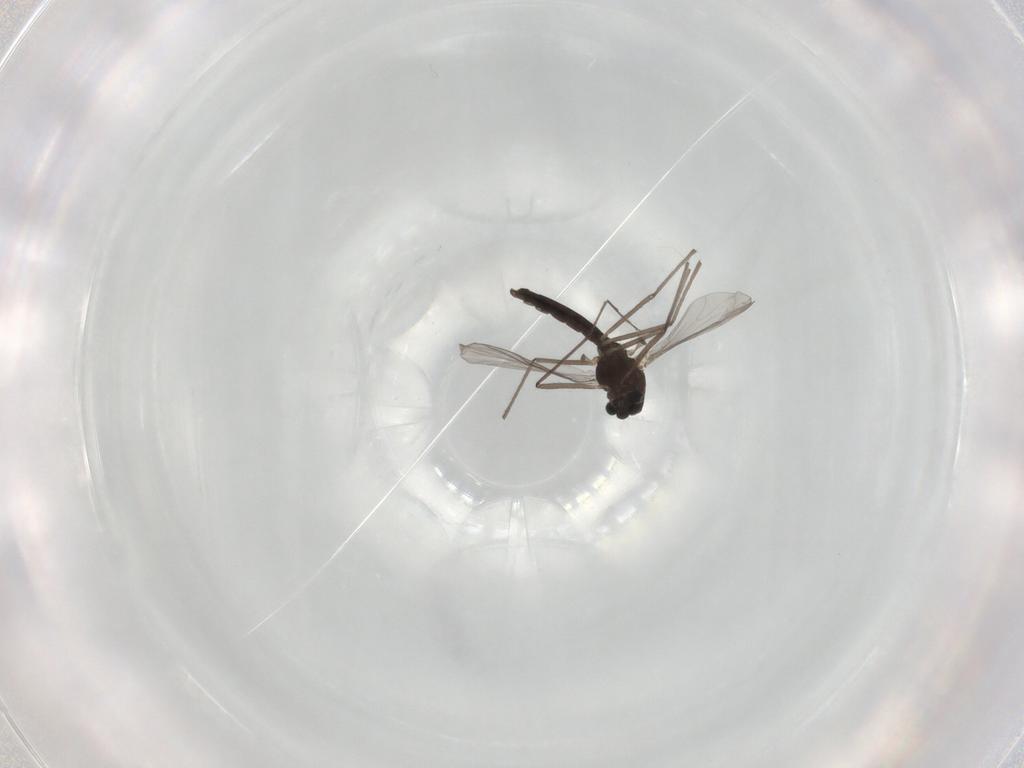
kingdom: Animalia
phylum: Arthropoda
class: Insecta
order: Diptera
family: Chironomidae
